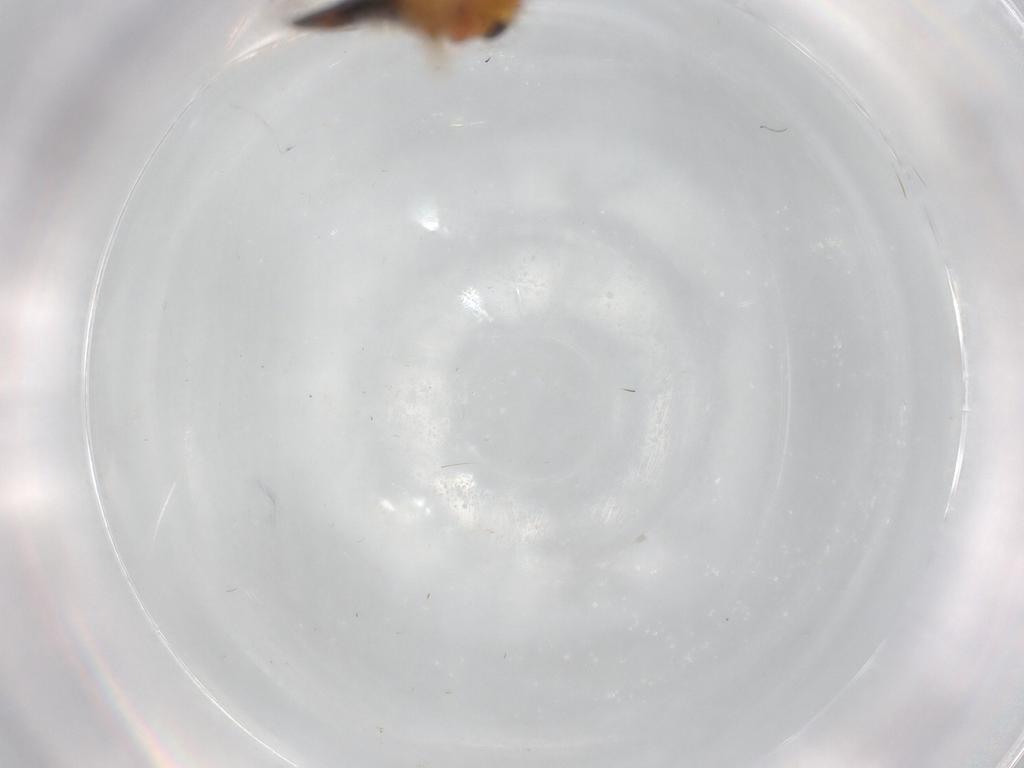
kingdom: Animalia
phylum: Arthropoda
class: Insecta
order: Hemiptera
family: Cicadellidae
